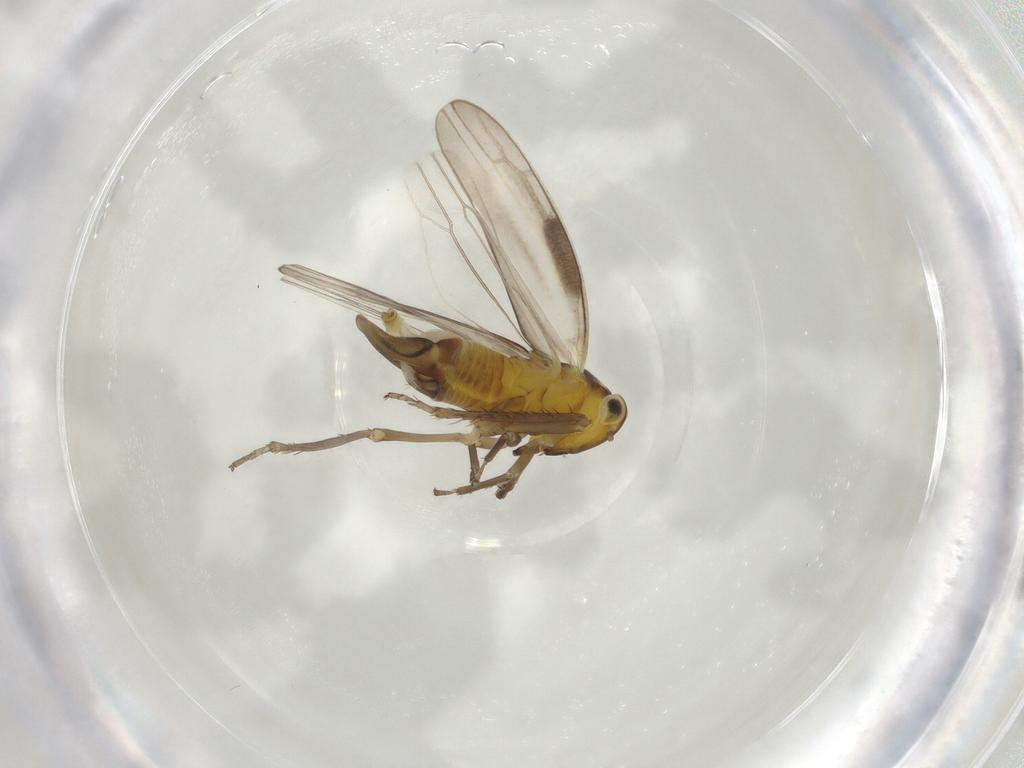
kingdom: Animalia
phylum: Arthropoda
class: Insecta
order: Hemiptera
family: Cicadellidae
